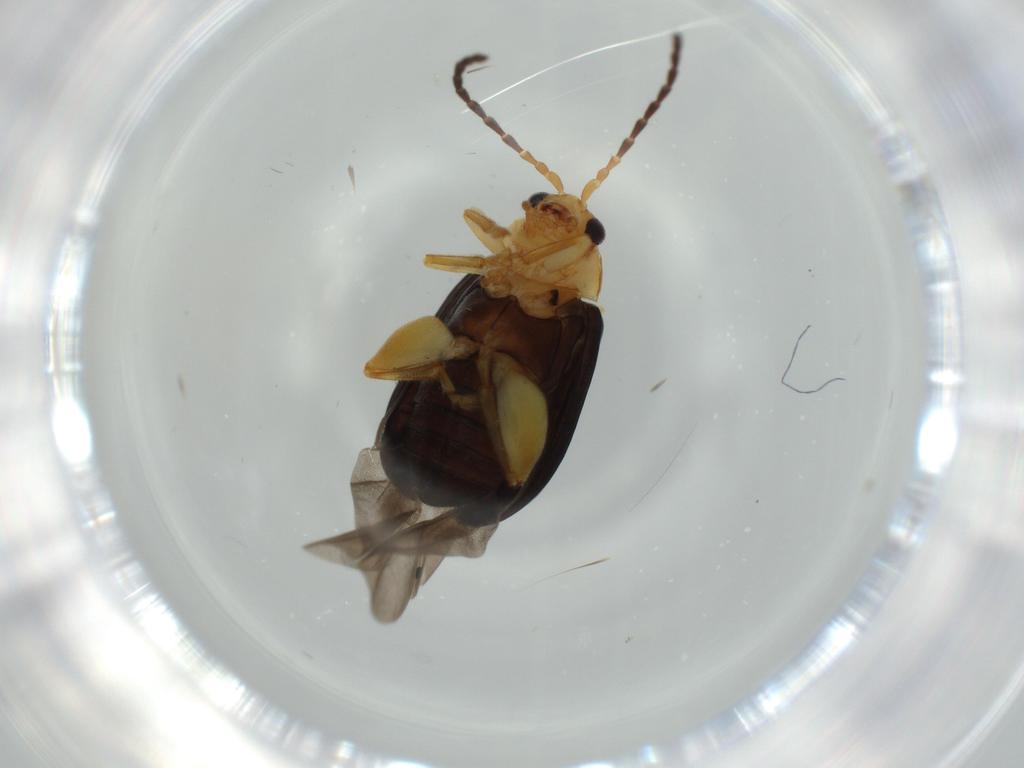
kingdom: Animalia
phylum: Arthropoda
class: Insecta
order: Coleoptera
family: Chrysomelidae
